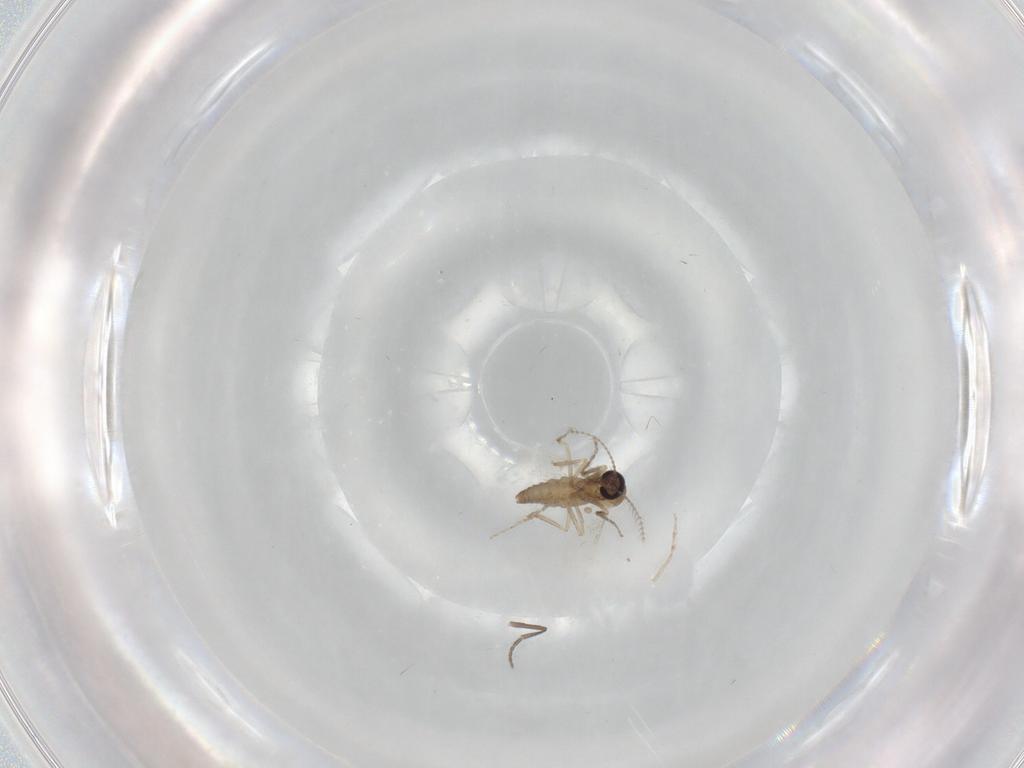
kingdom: Animalia
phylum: Arthropoda
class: Insecta
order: Diptera
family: Ceratopogonidae
